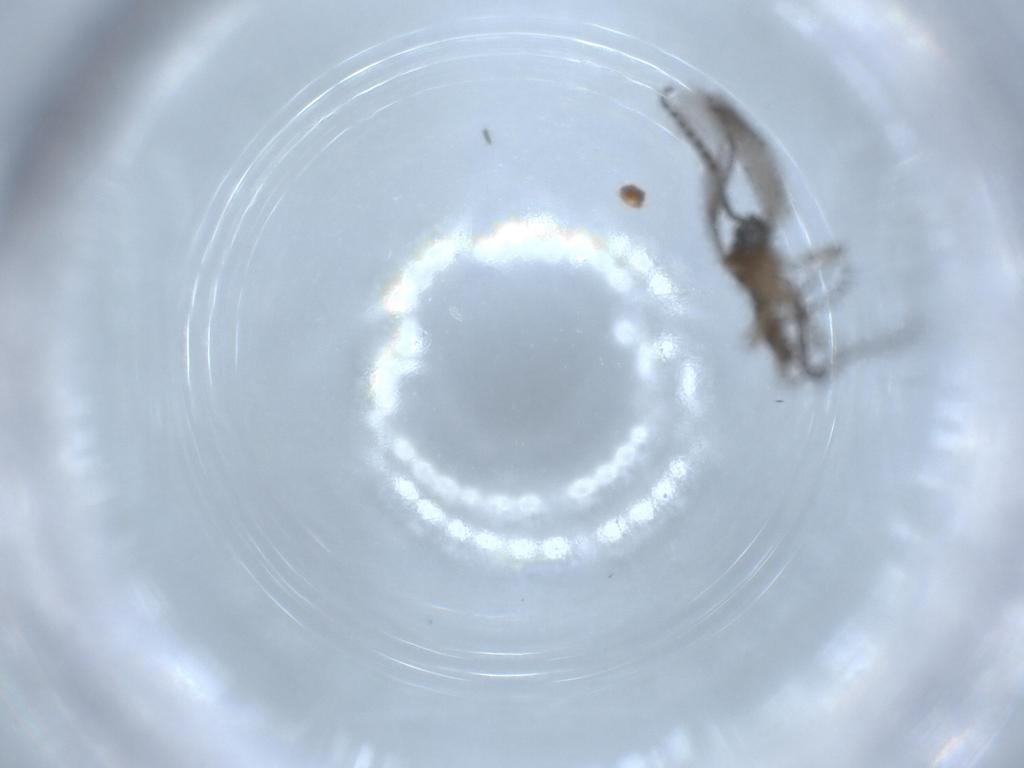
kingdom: Animalia
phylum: Arthropoda
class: Insecta
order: Diptera
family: Sciaridae
